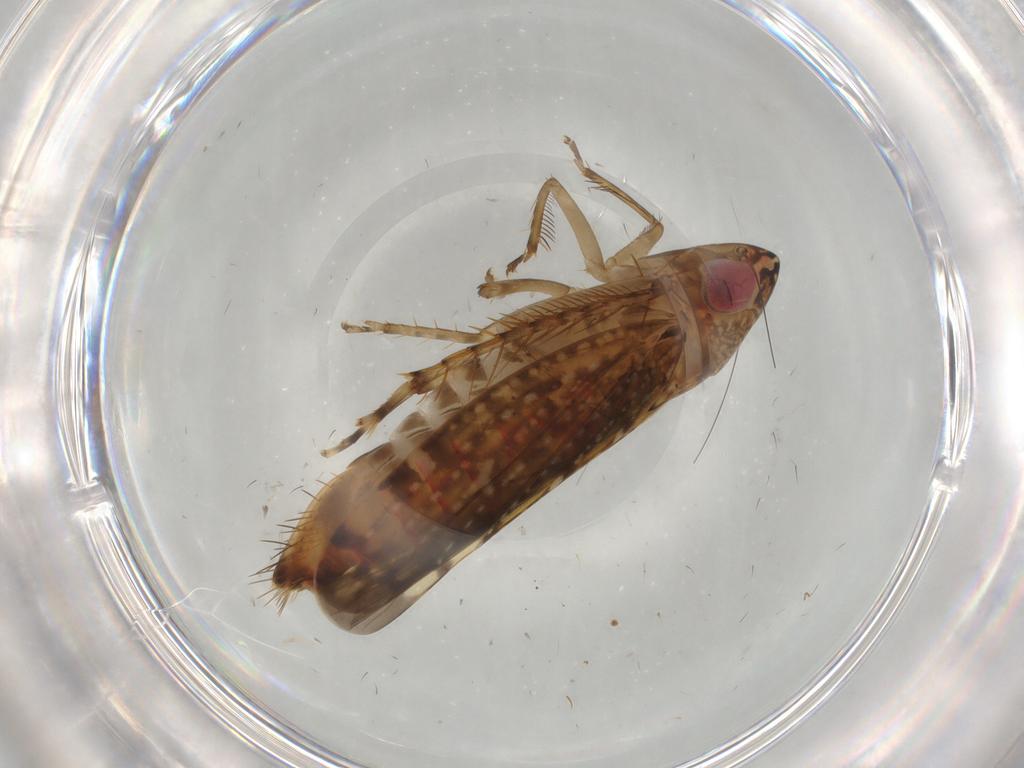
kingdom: Animalia
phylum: Arthropoda
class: Insecta
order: Hemiptera
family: Cicadellidae
